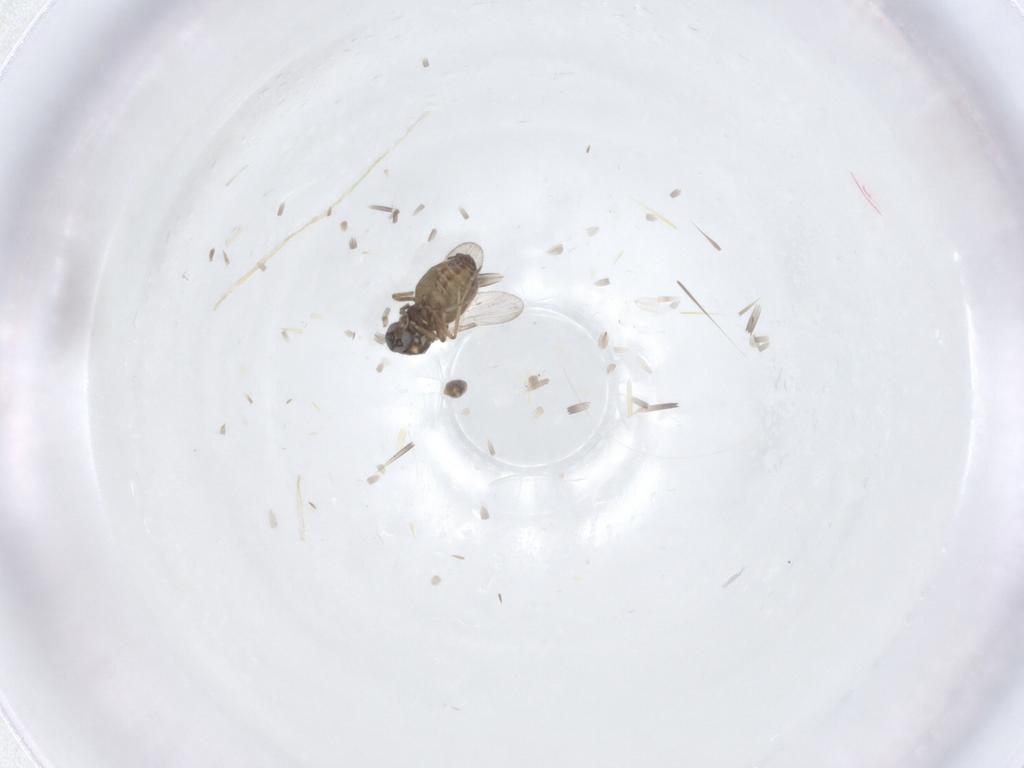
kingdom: Animalia
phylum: Arthropoda
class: Insecta
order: Diptera
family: Ceratopogonidae
